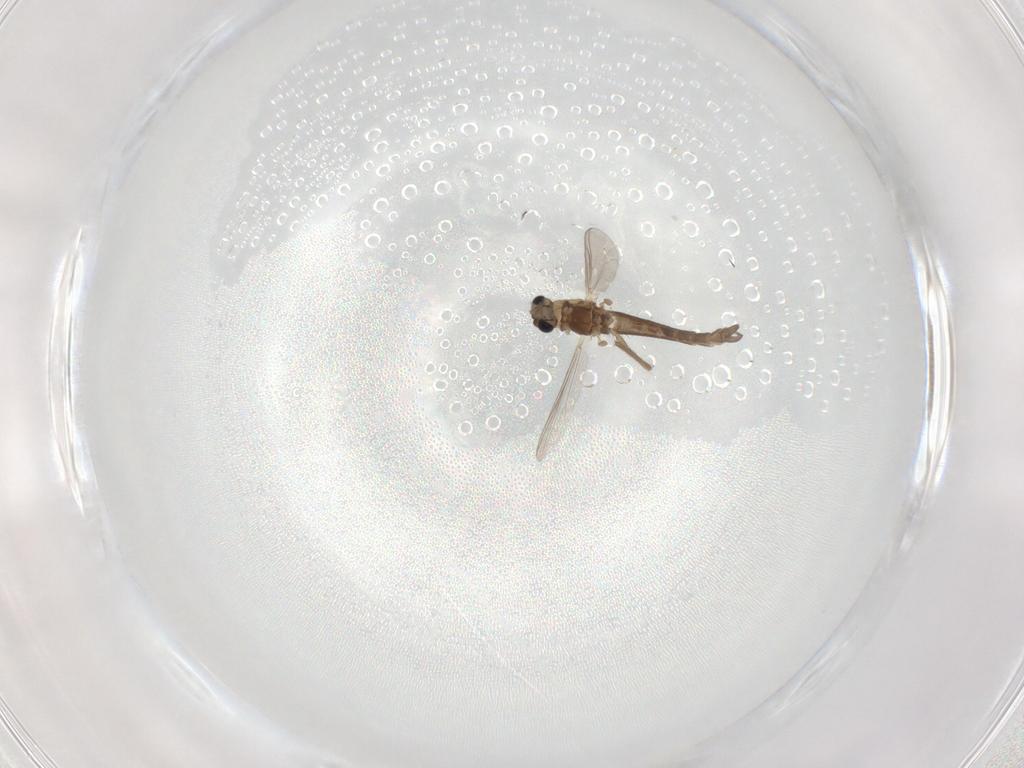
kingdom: Animalia
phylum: Arthropoda
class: Insecta
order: Diptera
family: Chironomidae
